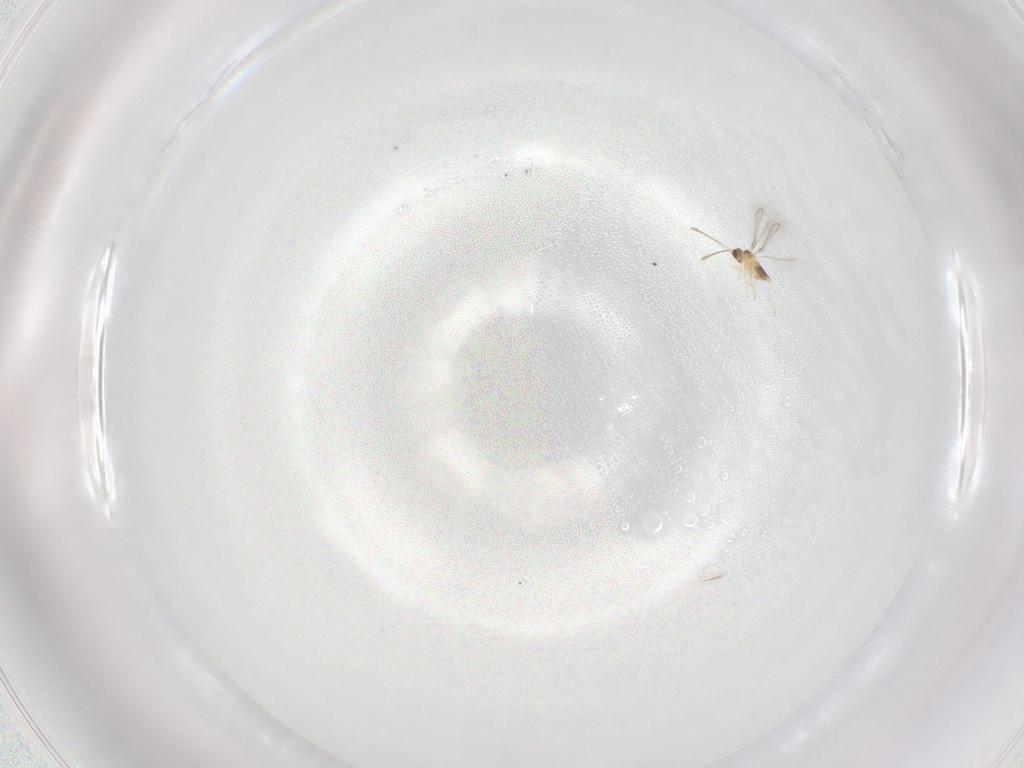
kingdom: Animalia
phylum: Arthropoda
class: Insecta
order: Hymenoptera
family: Mymaridae
